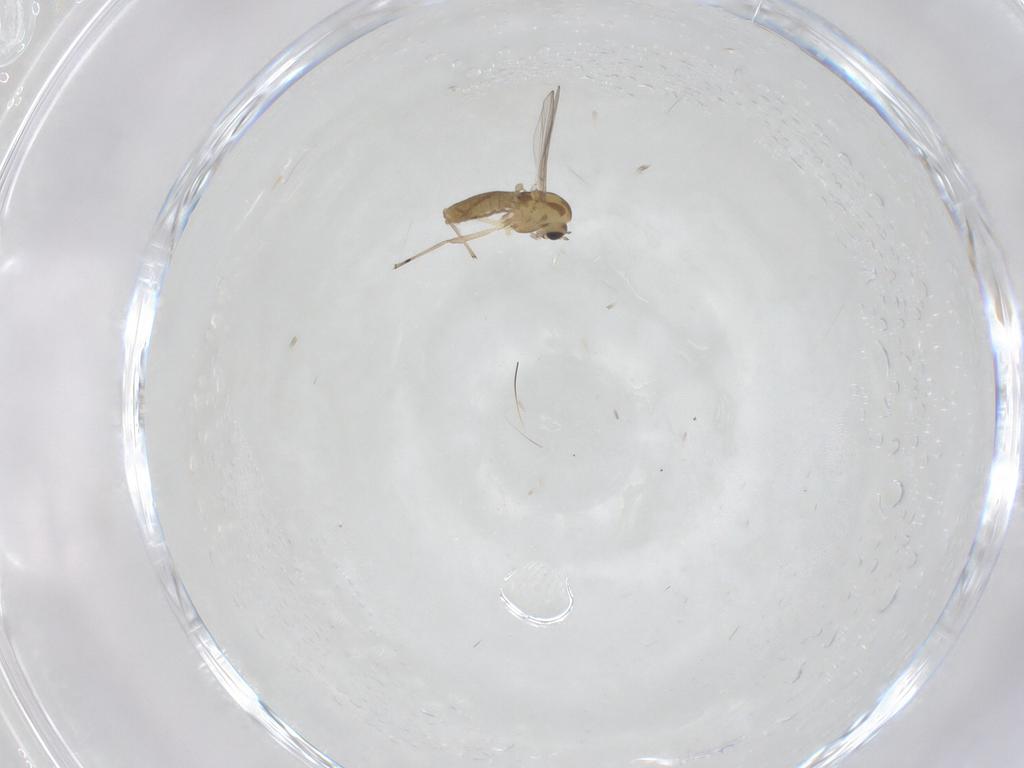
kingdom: Animalia
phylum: Arthropoda
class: Insecta
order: Diptera
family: Chironomidae
